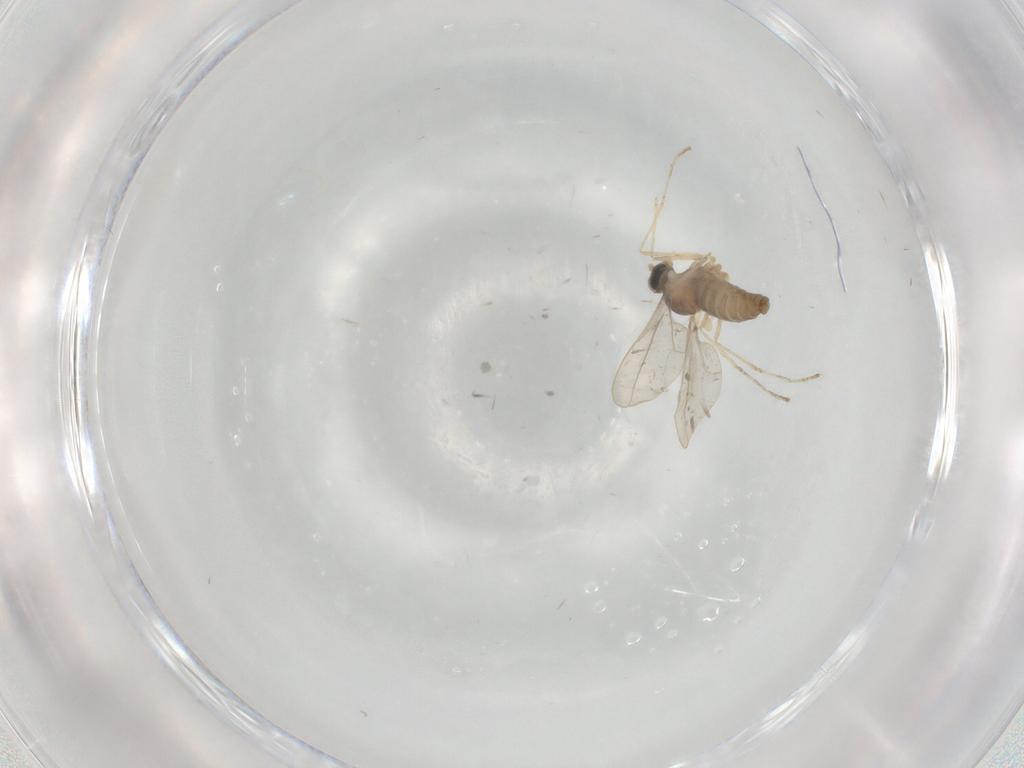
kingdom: Animalia
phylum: Arthropoda
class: Insecta
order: Diptera
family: Cecidomyiidae
